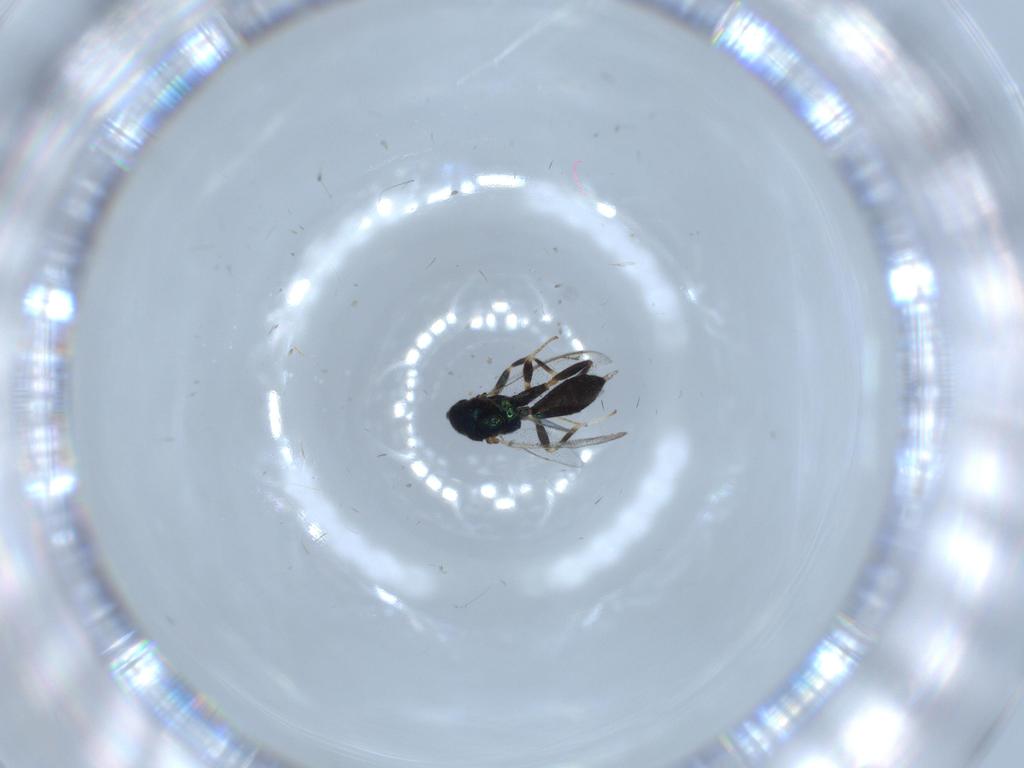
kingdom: Animalia
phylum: Arthropoda
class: Insecta
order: Hymenoptera
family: Cleonyminae
